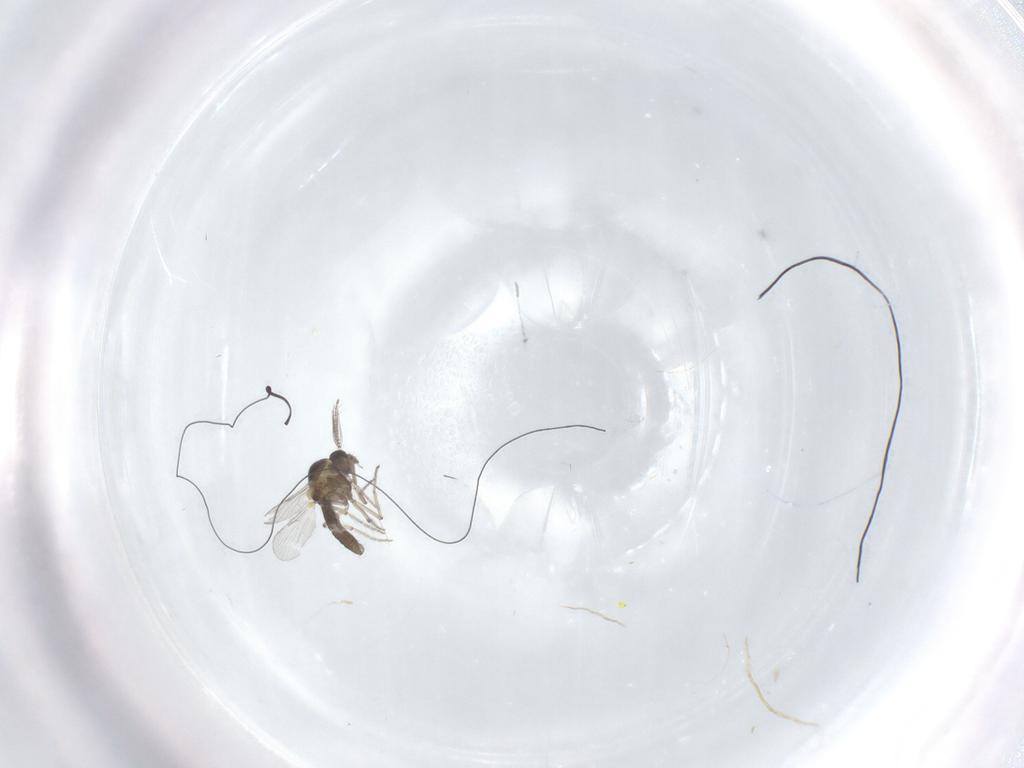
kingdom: Animalia
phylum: Arthropoda
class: Insecta
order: Diptera
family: Ceratopogonidae
